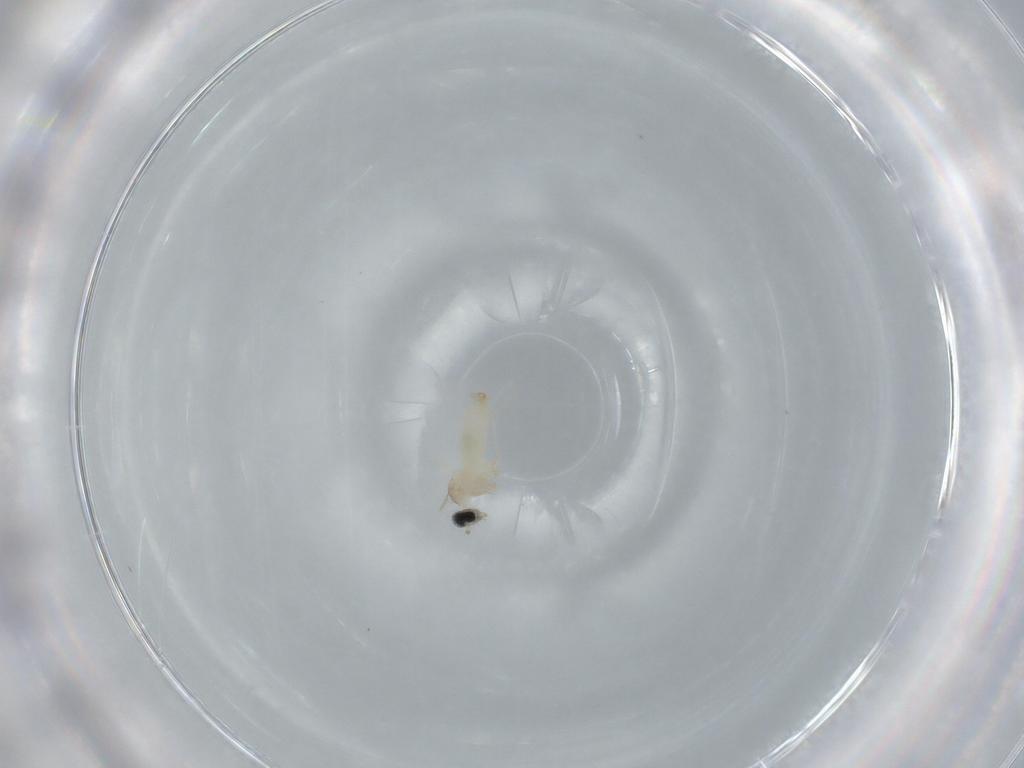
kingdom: Animalia
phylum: Arthropoda
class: Insecta
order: Diptera
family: Cecidomyiidae
